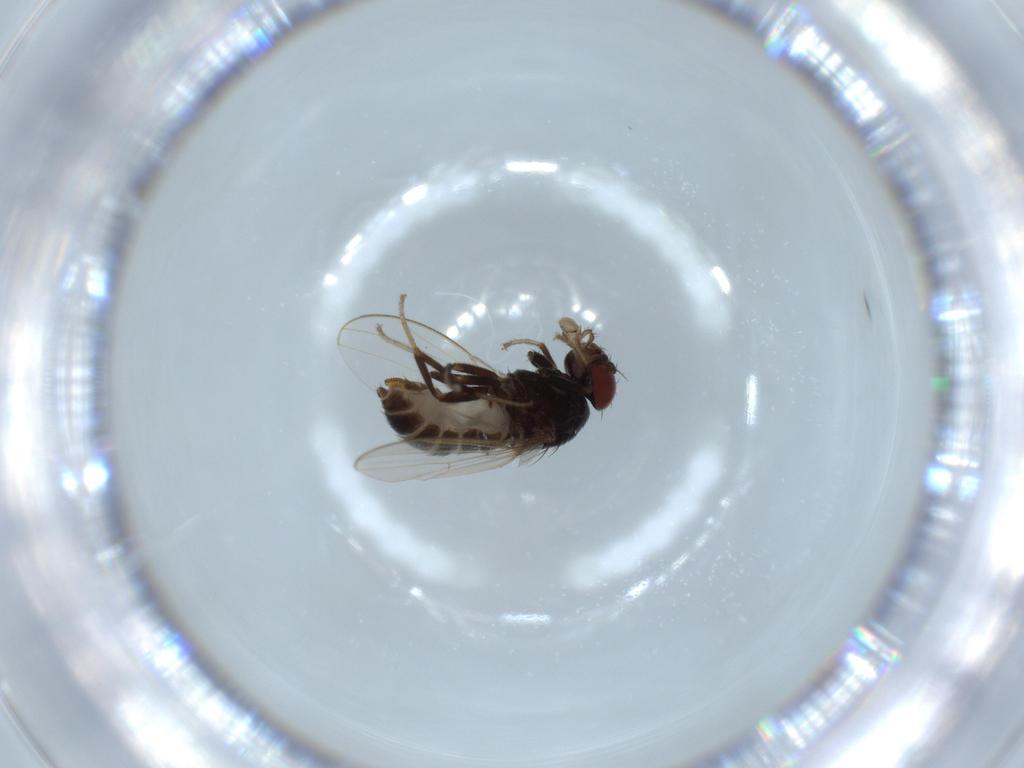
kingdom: Animalia
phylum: Arthropoda
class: Insecta
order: Diptera
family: Drosophilidae
